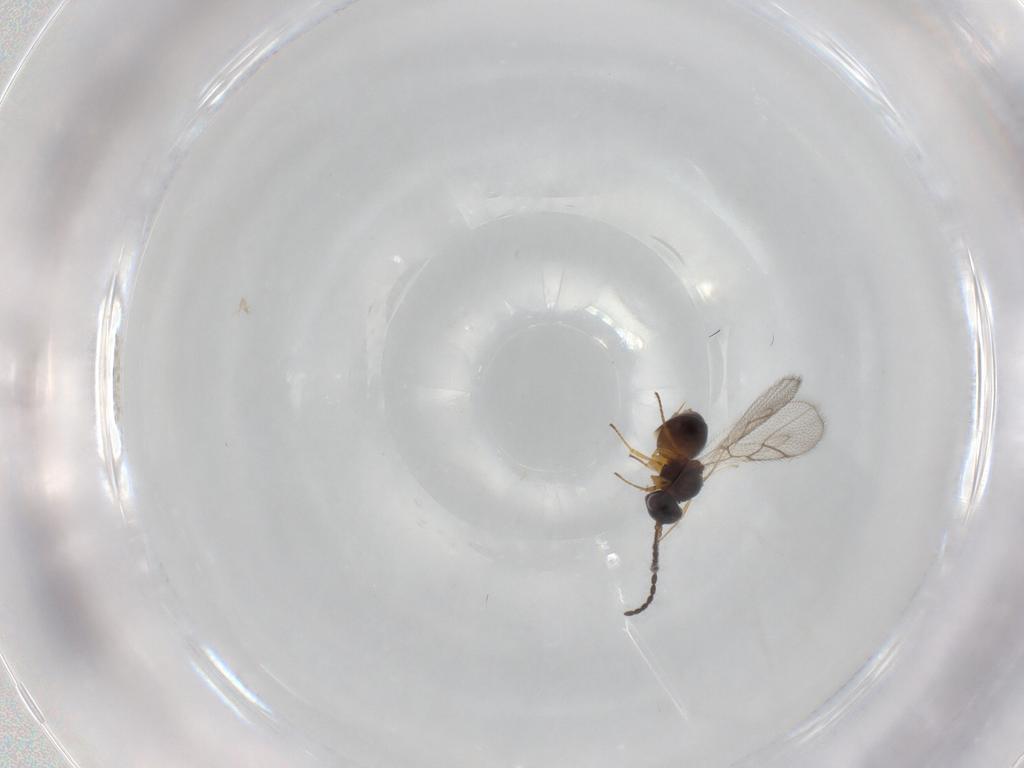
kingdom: Animalia
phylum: Arthropoda
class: Insecta
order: Hymenoptera
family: Figitidae
